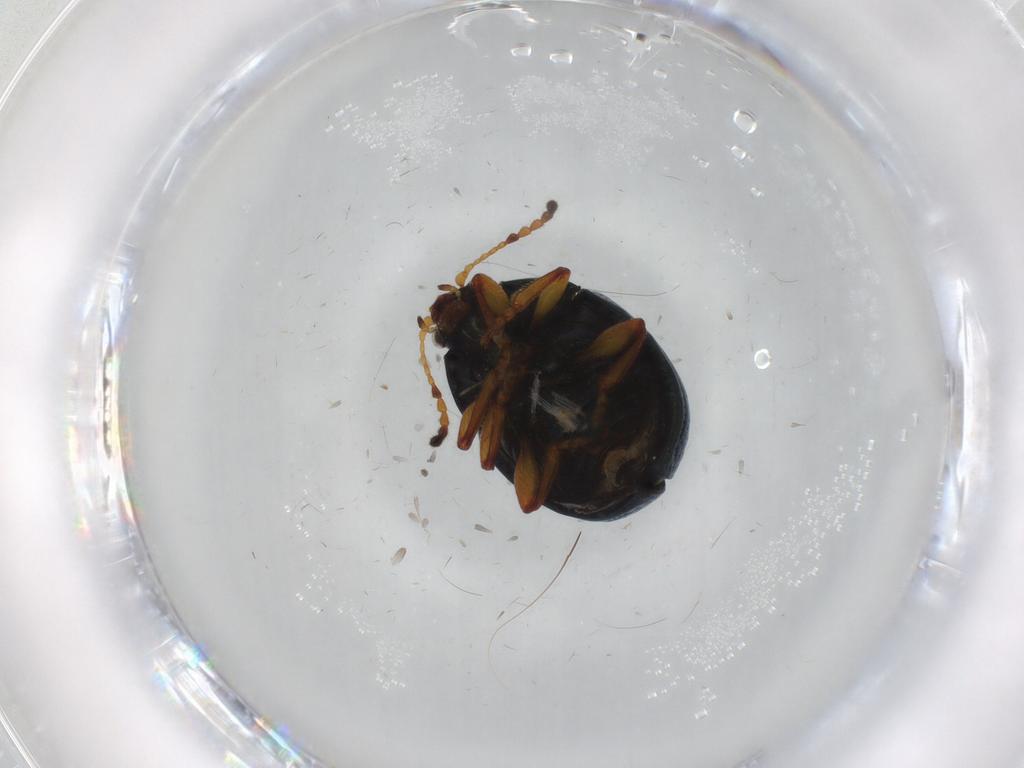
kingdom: Animalia
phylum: Arthropoda
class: Insecta
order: Coleoptera
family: Chrysomelidae
